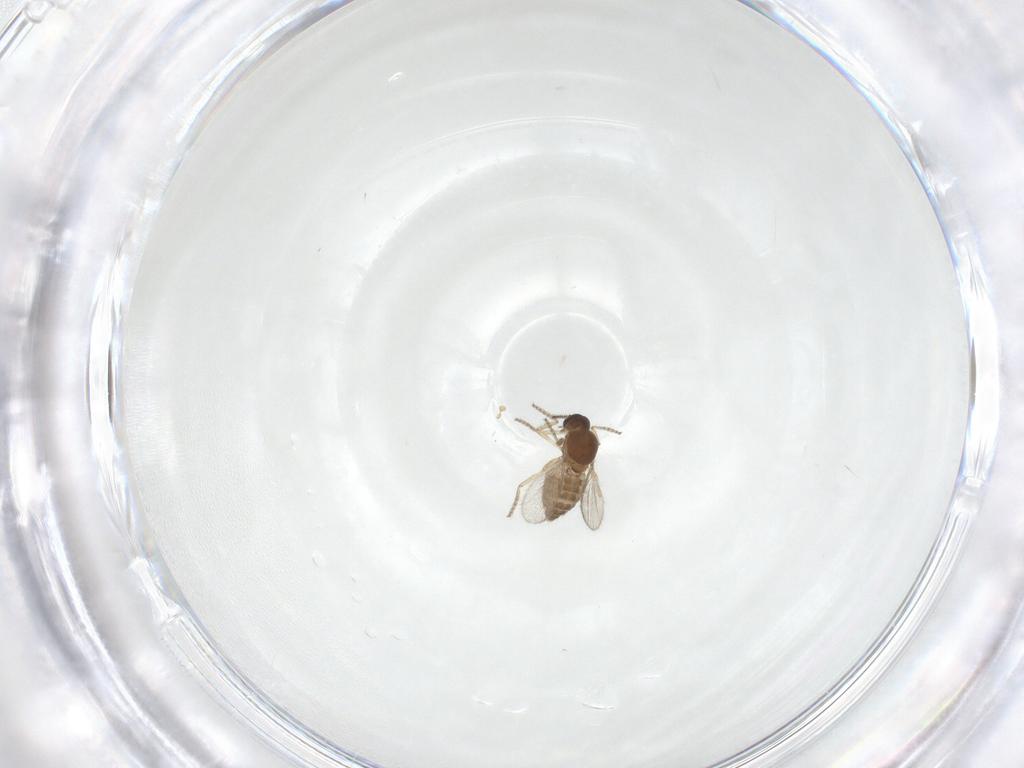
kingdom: Animalia
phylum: Arthropoda
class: Insecta
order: Diptera
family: Ceratopogonidae
